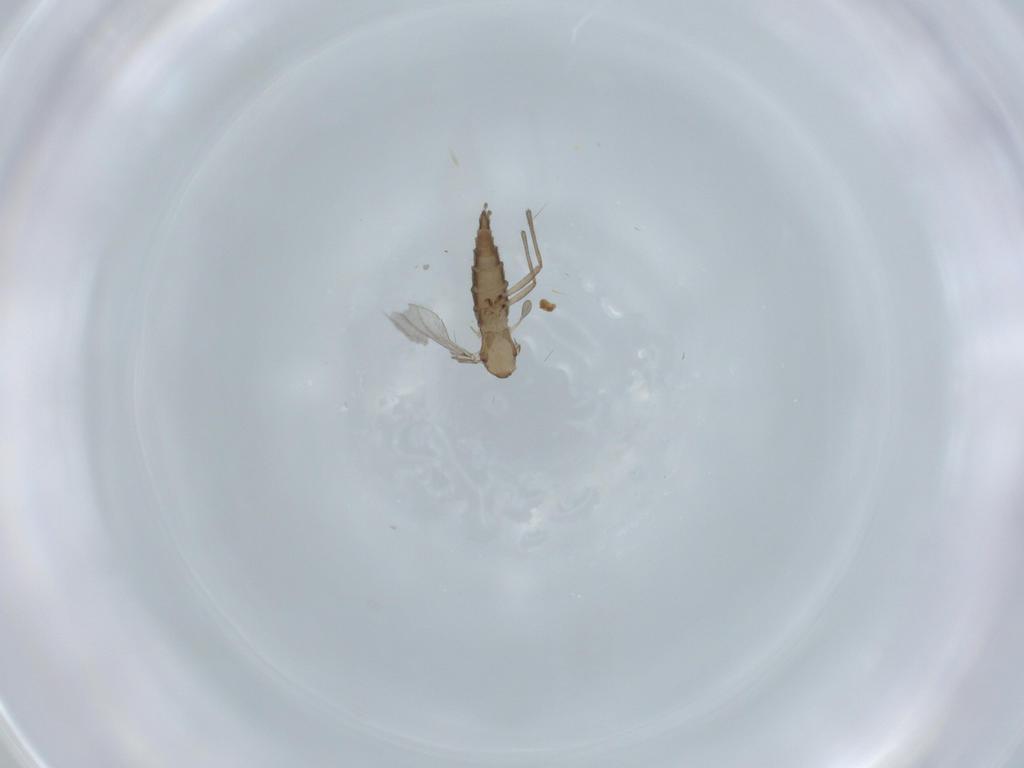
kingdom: Animalia
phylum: Arthropoda
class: Insecta
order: Diptera
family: Sciaridae
